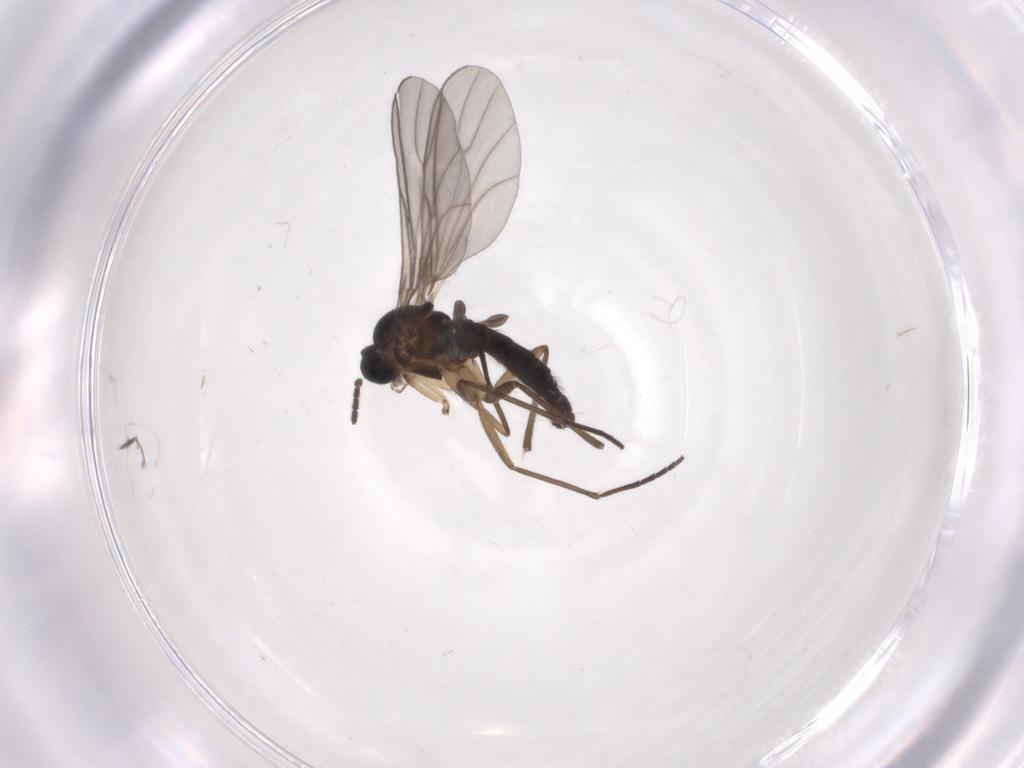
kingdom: Animalia
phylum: Arthropoda
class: Insecta
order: Diptera
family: Sciaridae
